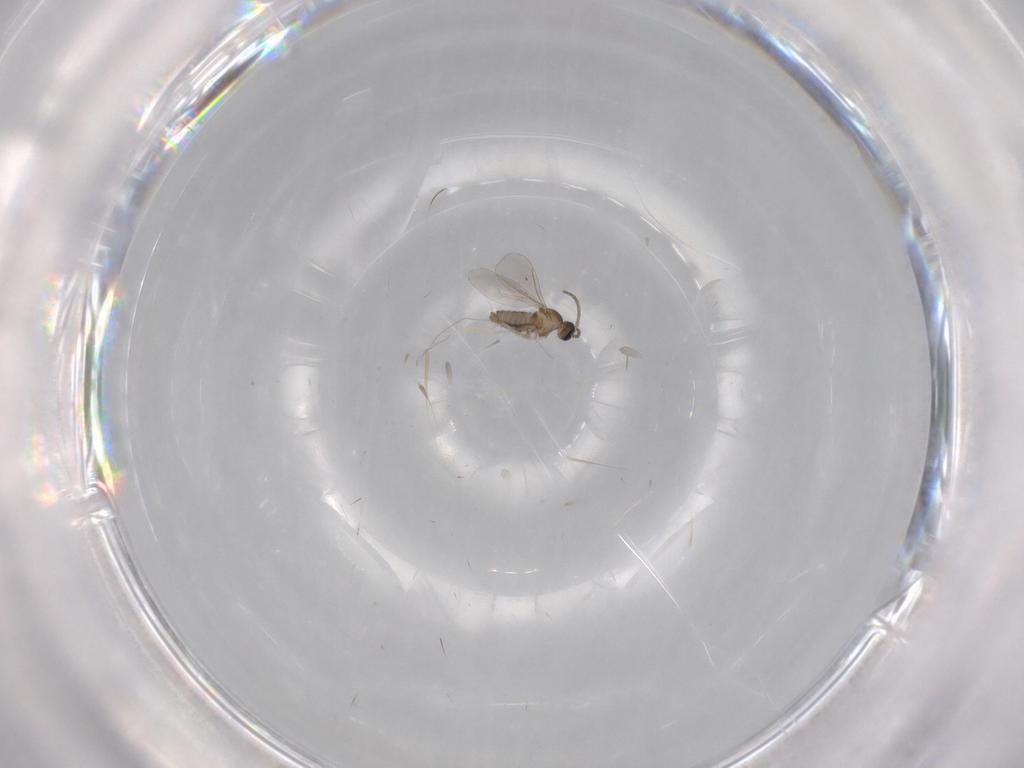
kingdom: Animalia
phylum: Arthropoda
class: Insecta
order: Diptera
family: Cecidomyiidae
